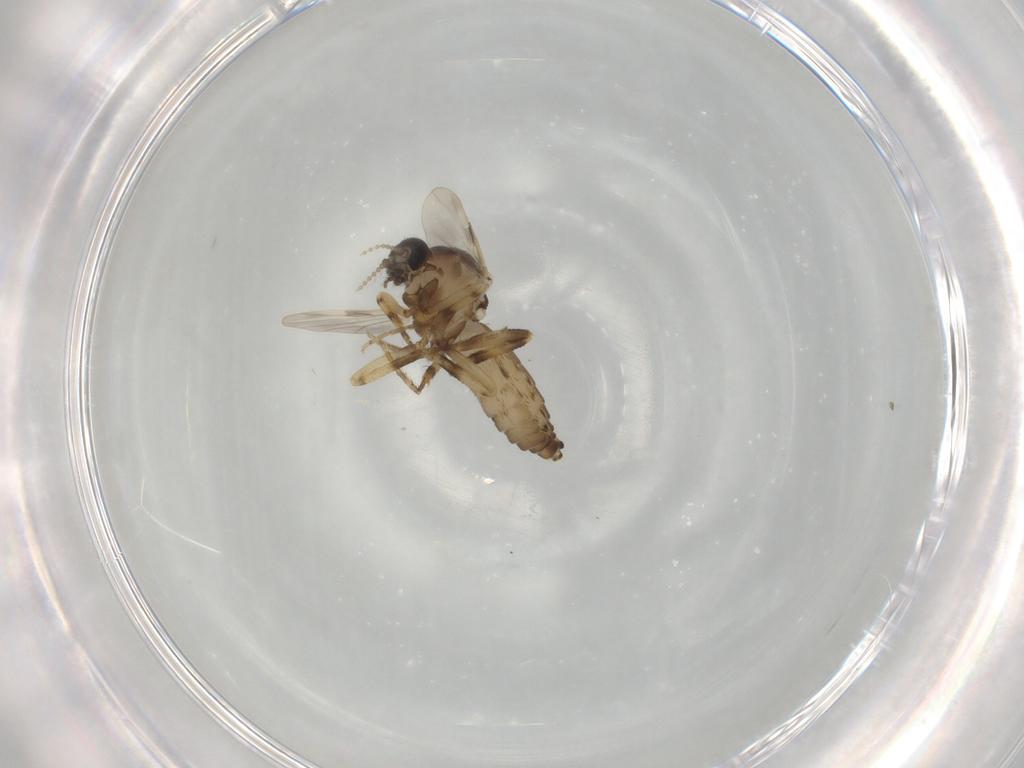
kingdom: Animalia
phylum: Arthropoda
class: Insecta
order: Diptera
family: Ceratopogonidae
